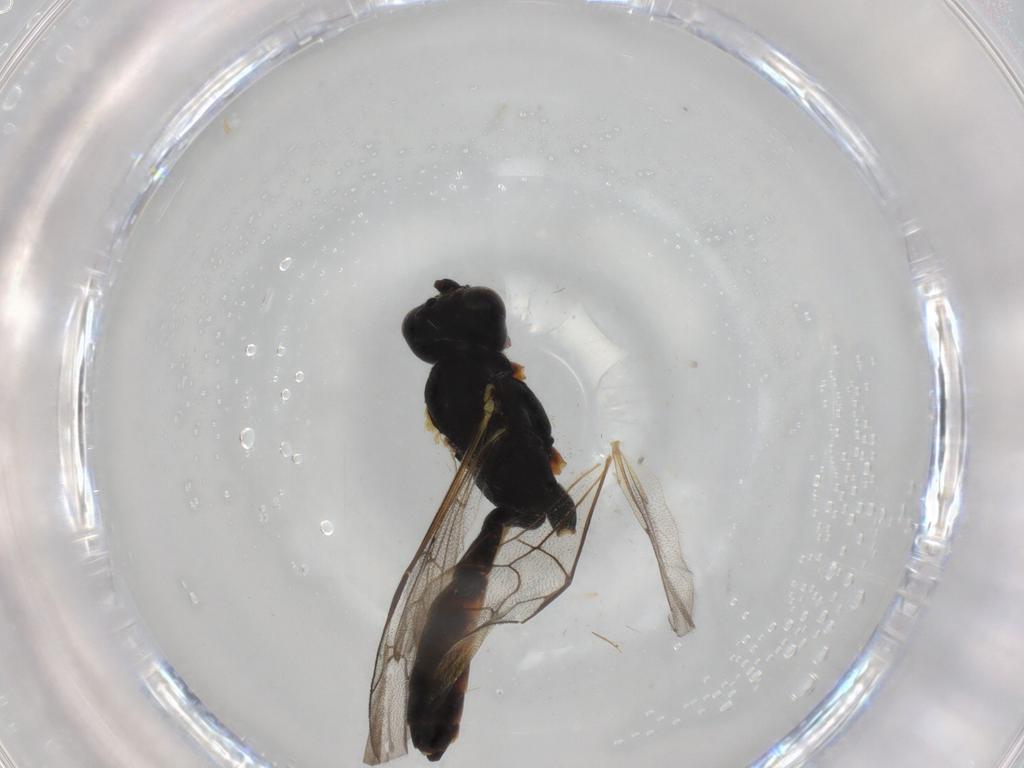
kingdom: Animalia
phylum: Arthropoda
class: Insecta
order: Hymenoptera
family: Ichneumonidae
